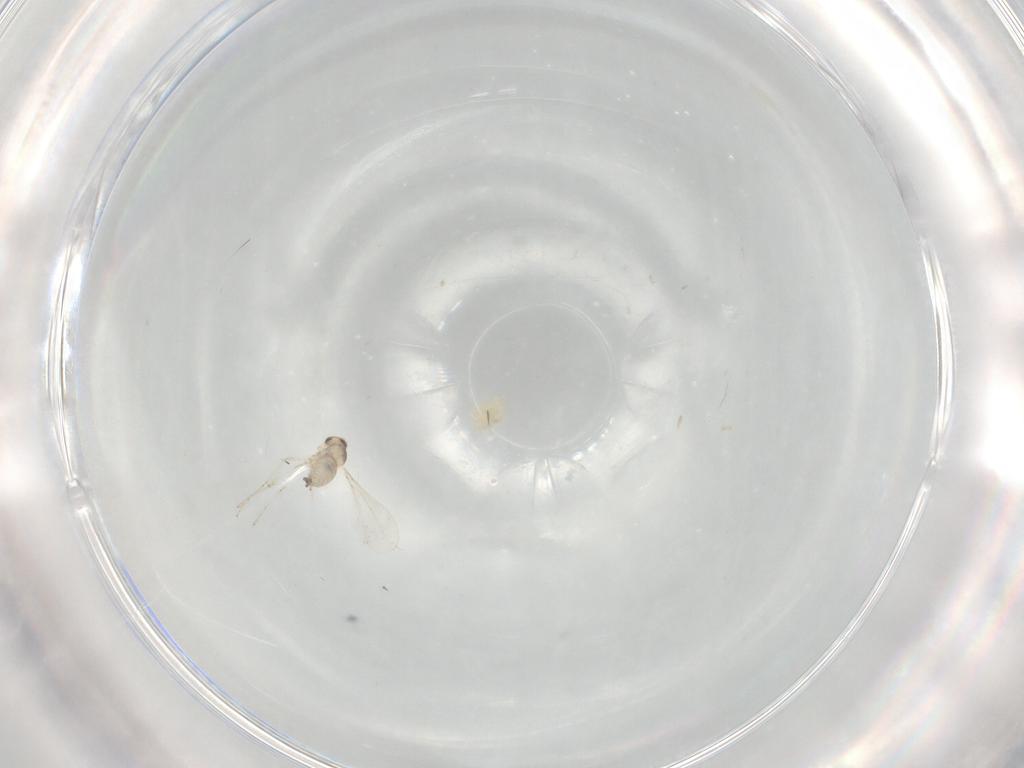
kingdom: Animalia
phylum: Arthropoda
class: Insecta
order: Diptera
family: Cecidomyiidae
